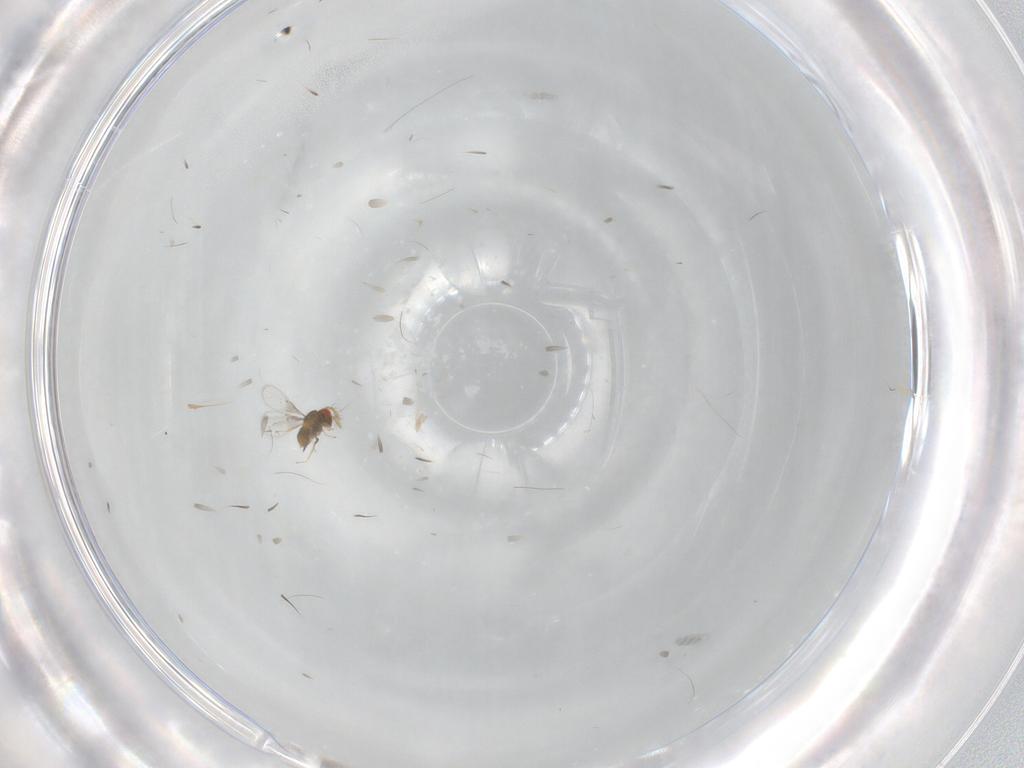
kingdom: Animalia
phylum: Arthropoda
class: Insecta
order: Hymenoptera
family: Trichogrammatidae
